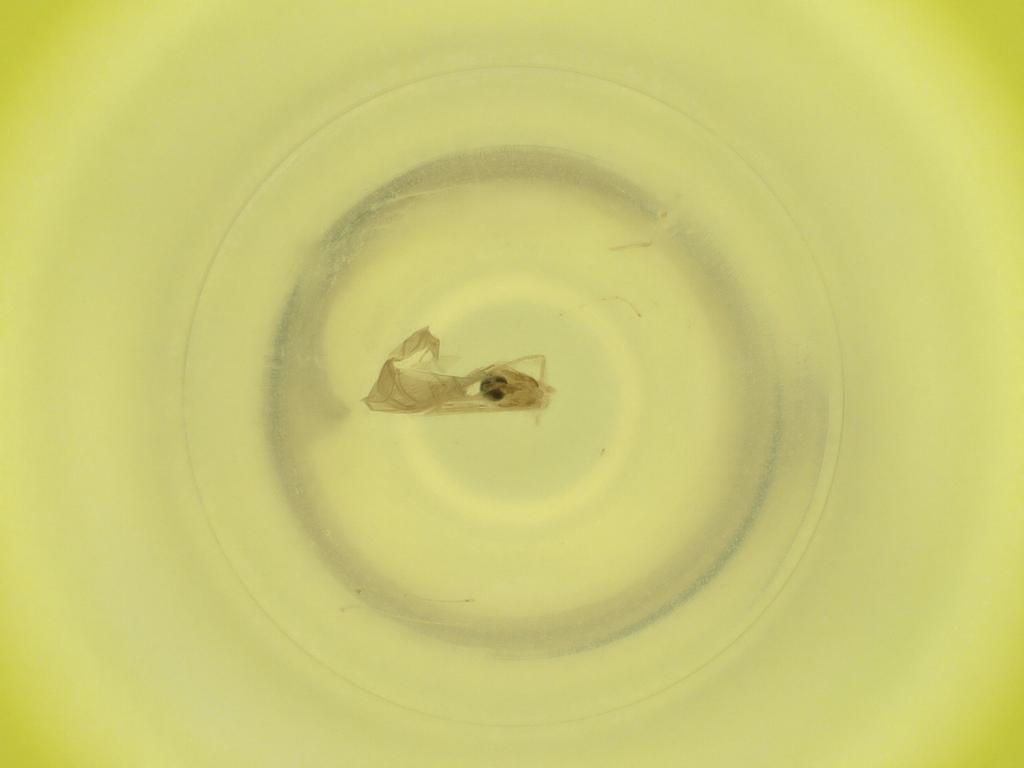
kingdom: Animalia
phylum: Arthropoda
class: Insecta
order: Diptera
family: Cecidomyiidae
